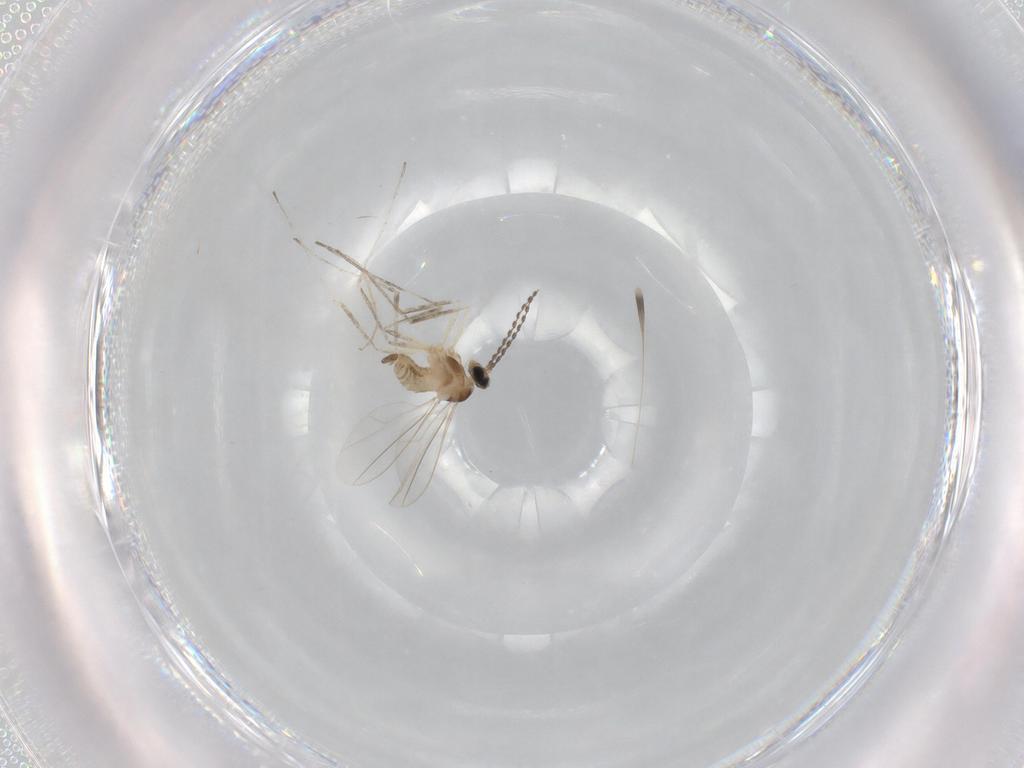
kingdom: Animalia
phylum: Arthropoda
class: Insecta
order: Diptera
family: Cecidomyiidae
